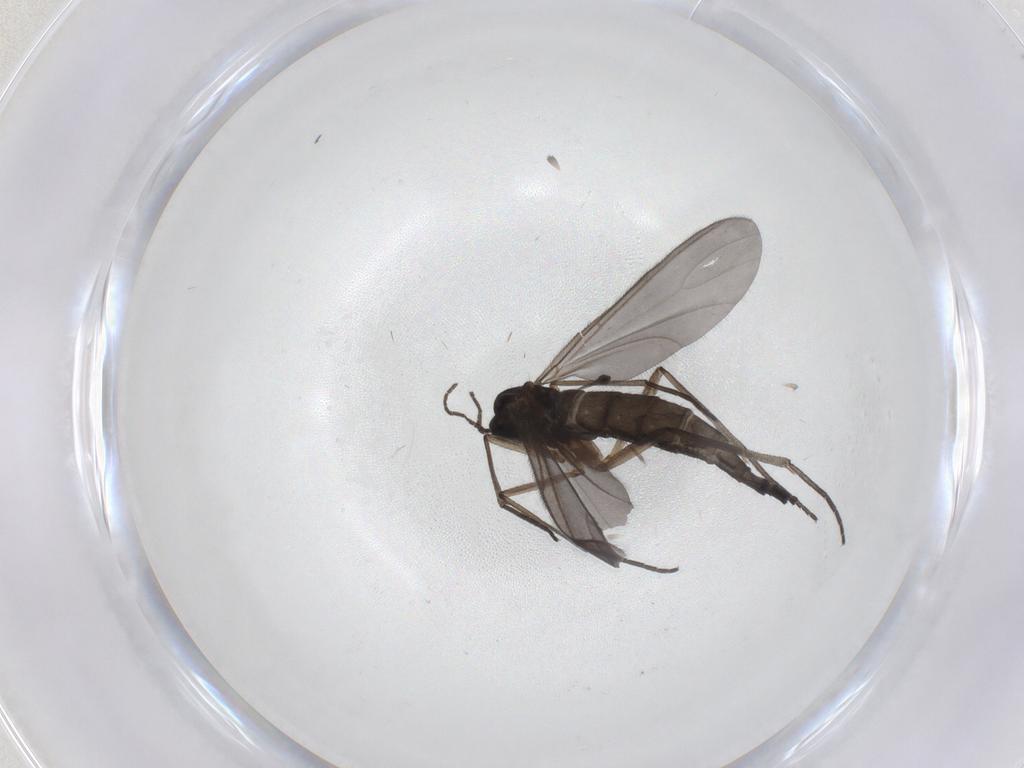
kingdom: Animalia
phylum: Arthropoda
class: Insecta
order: Diptera
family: Sciaridae
